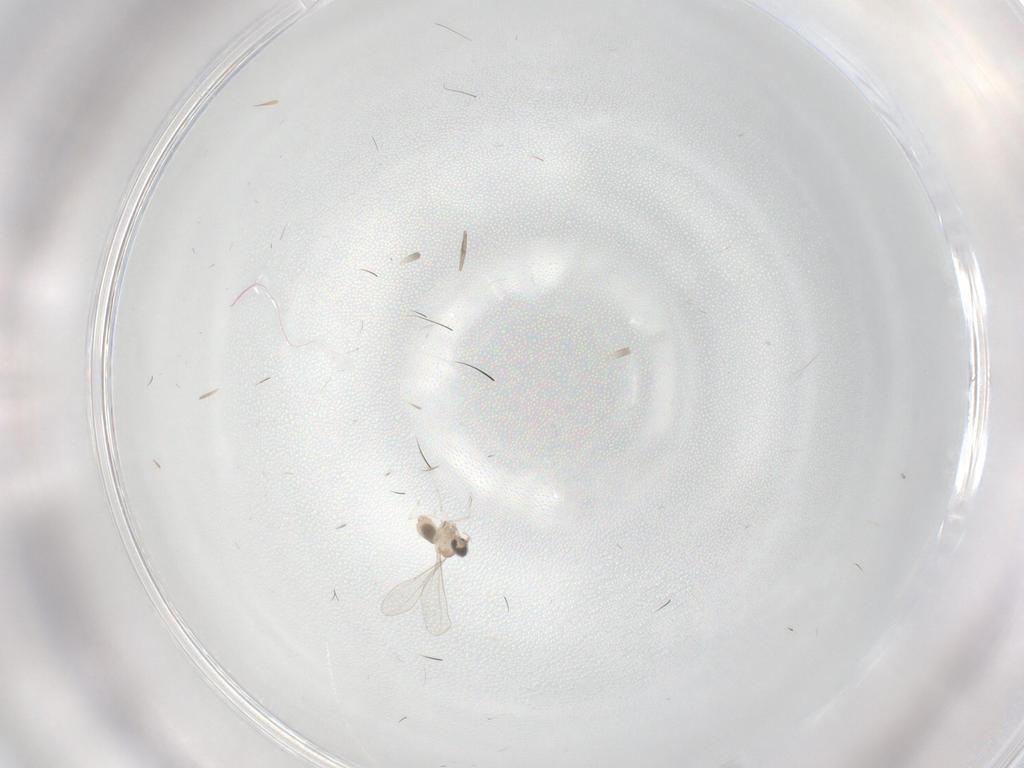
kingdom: Animalia
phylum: Arthropoda
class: Insecta
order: Diptera
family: Cecidomyiidae
